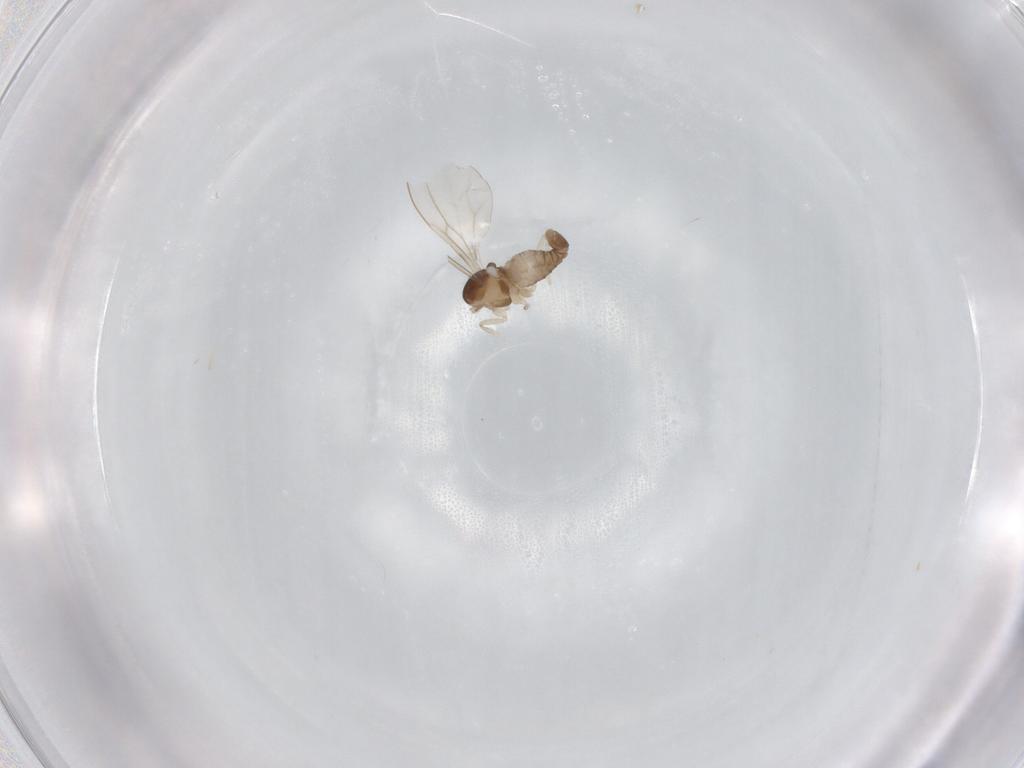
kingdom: Animalia
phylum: Arthropoda
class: Insecta
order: Diptera
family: Cecidomyiidae
